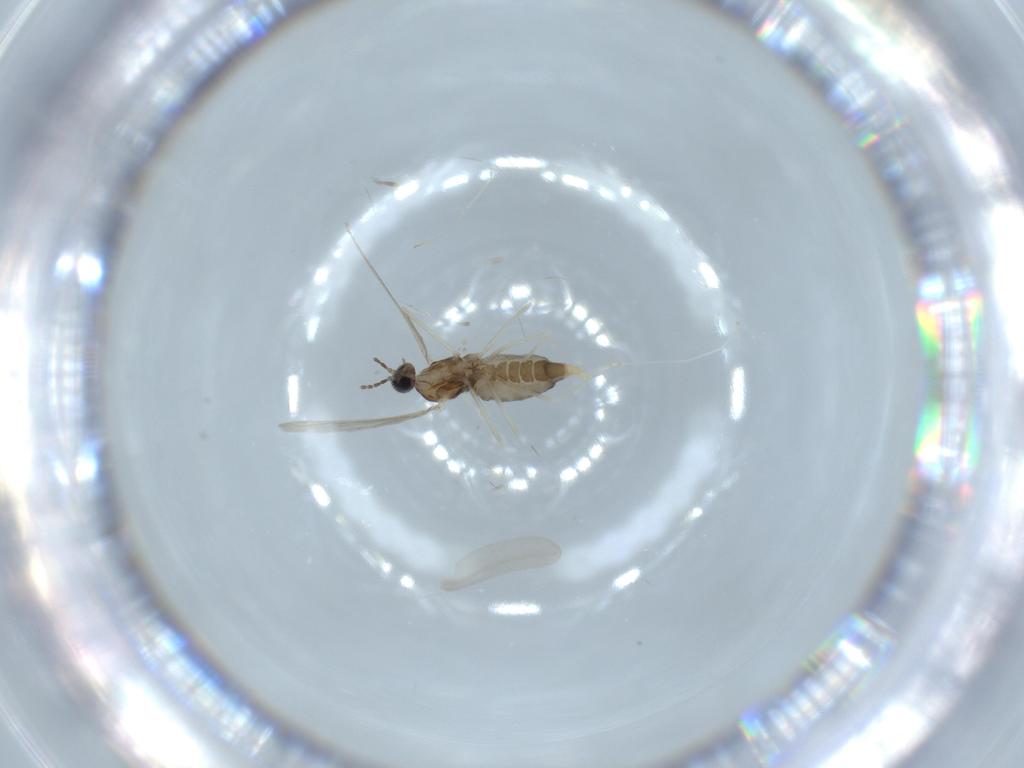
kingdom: Animalia
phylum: Arthropoda
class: Insecta
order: Diptera
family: Cecidomyiidae
